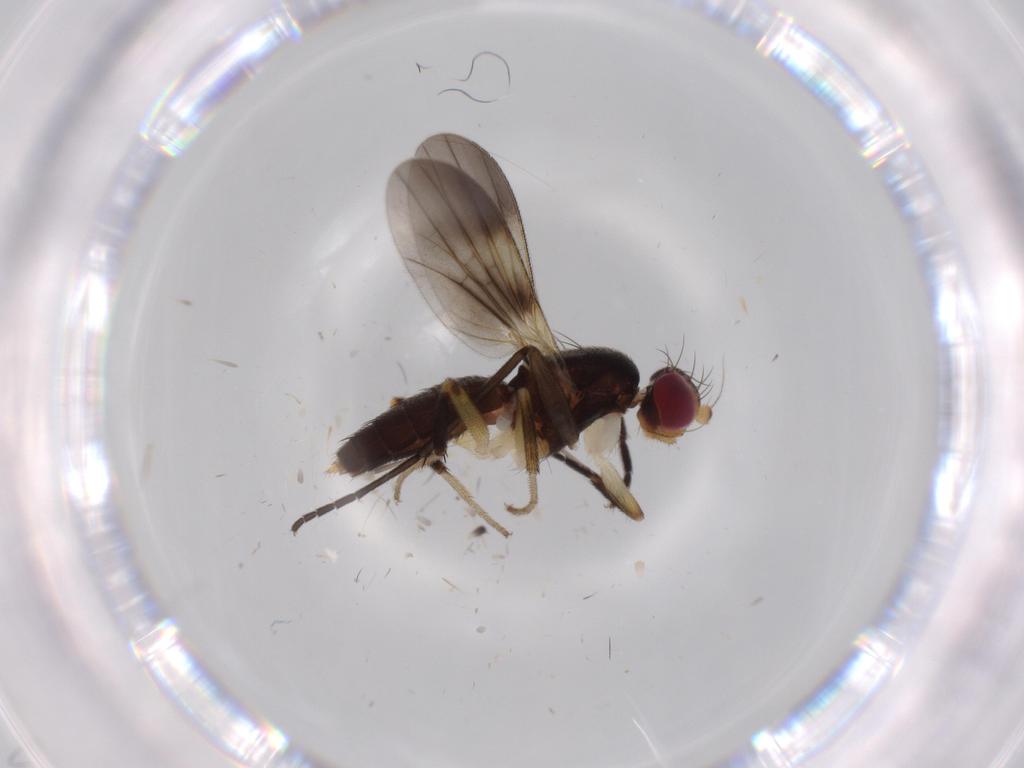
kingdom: Animalia
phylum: Arthropoda
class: Insecta
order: Diptera
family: Clusiidae
